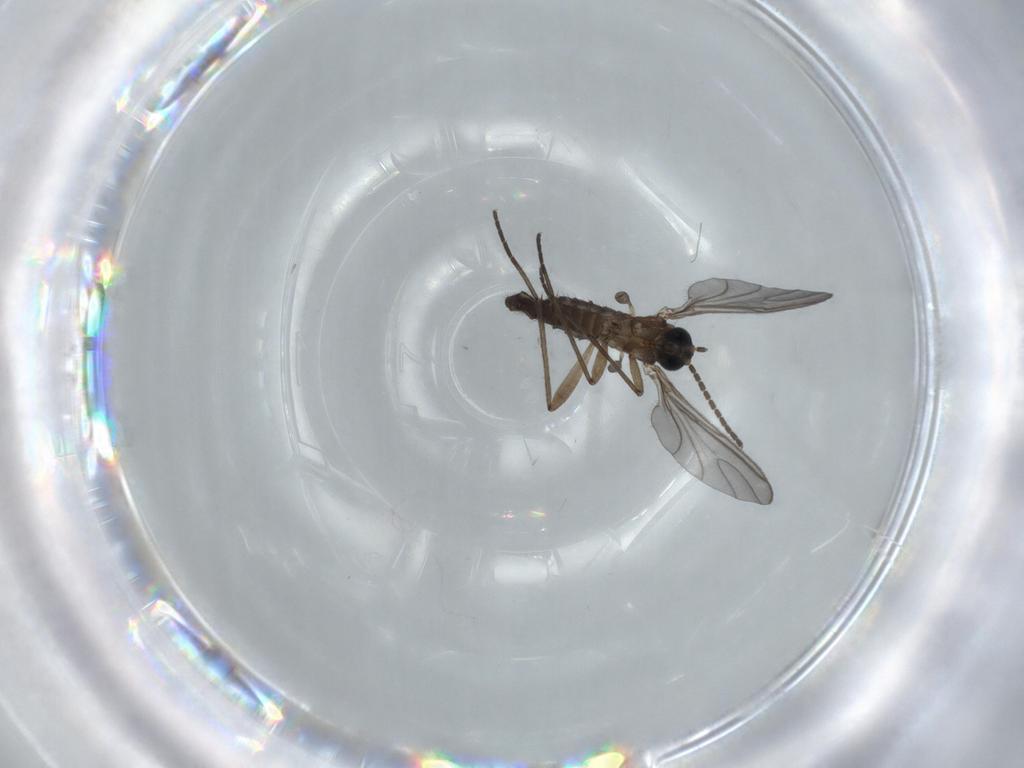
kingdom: Animalia
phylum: Arthropoda
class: Insecta
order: Diptera
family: Sciaridae
